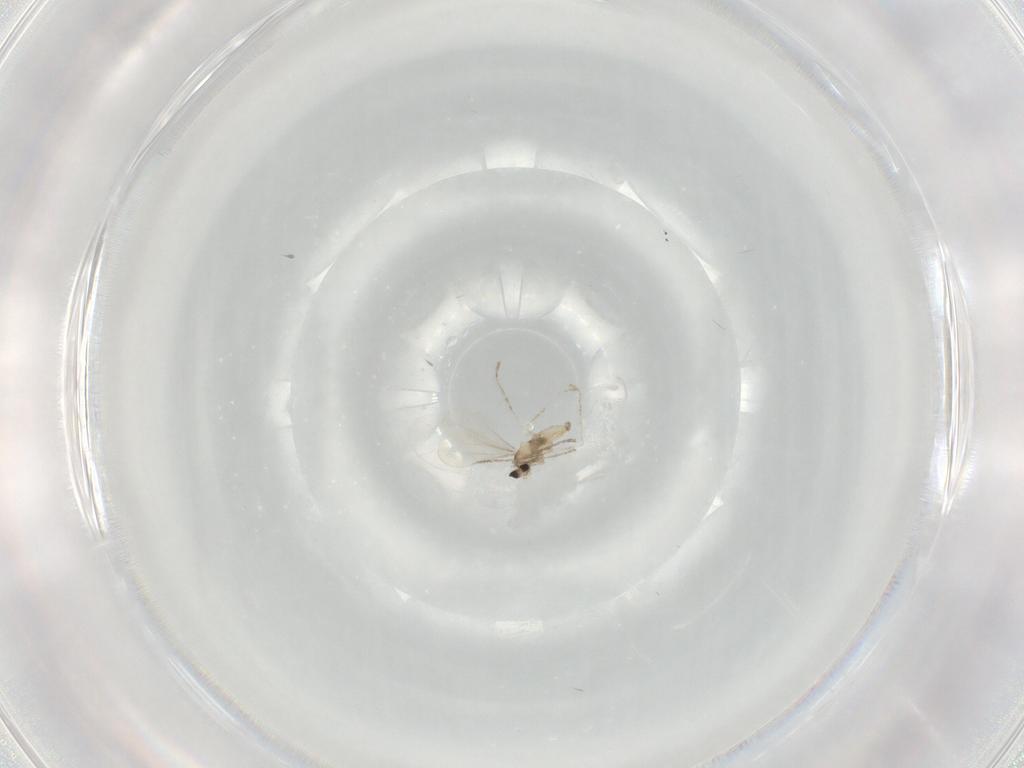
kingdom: Animalia
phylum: Arthropoda
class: Insecta
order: Diptera
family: Cecidomyiidae
